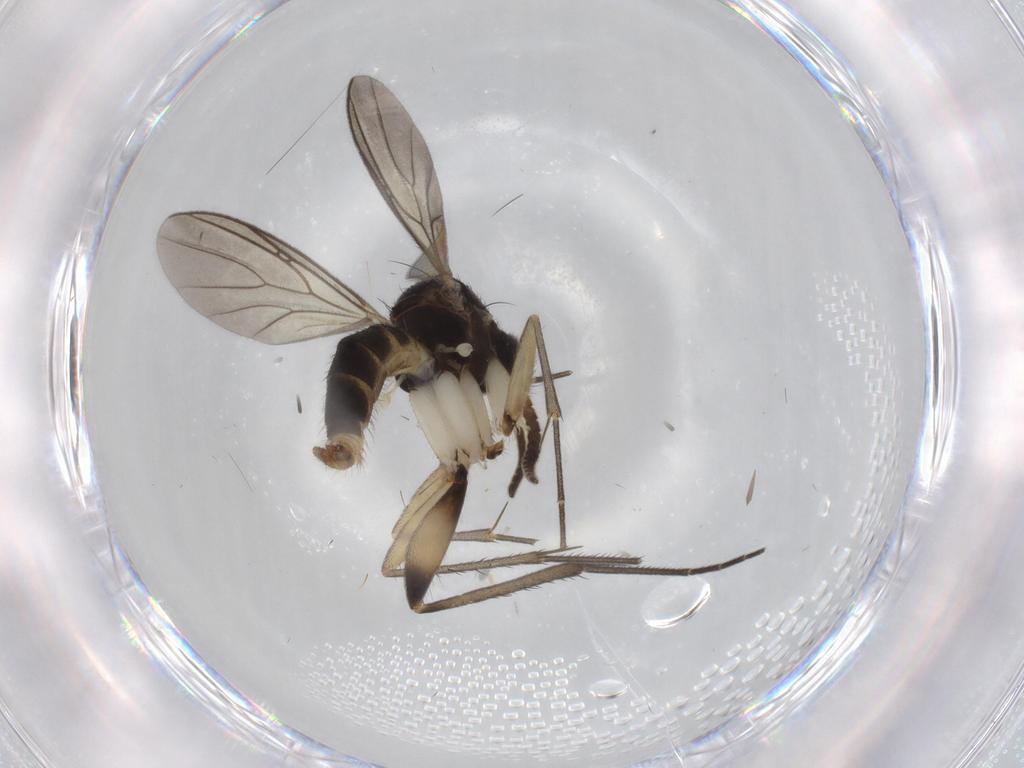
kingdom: Animalia
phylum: Arthropoda
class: Insecta
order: Diptera
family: Cecidomyiidae
